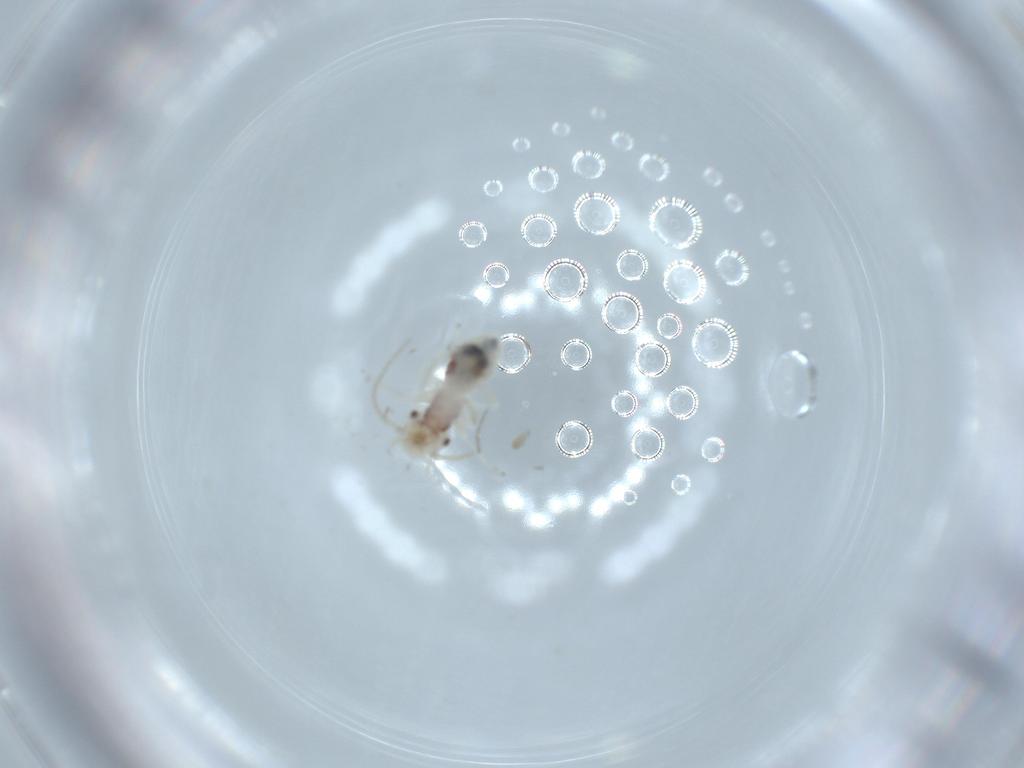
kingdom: Animalia
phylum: Arthropoda
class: Insecta
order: Psocodea
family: Caeciliusidae
